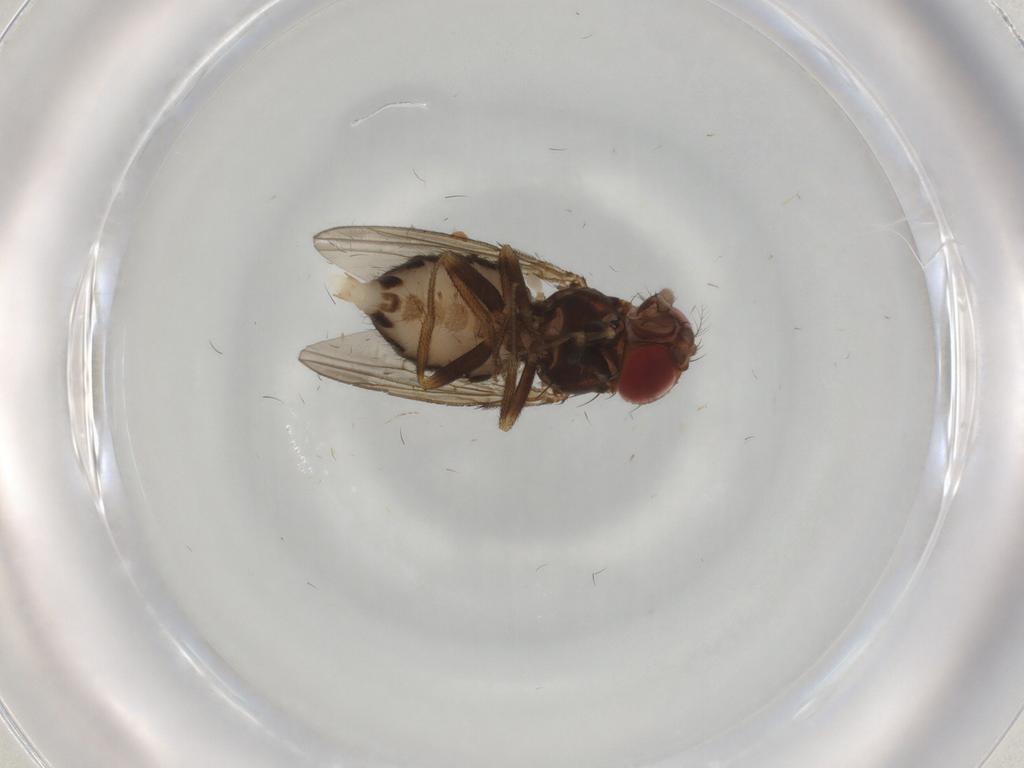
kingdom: Animalia
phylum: Arthropoda
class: Insecta
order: Diptera
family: Drosophilidae
